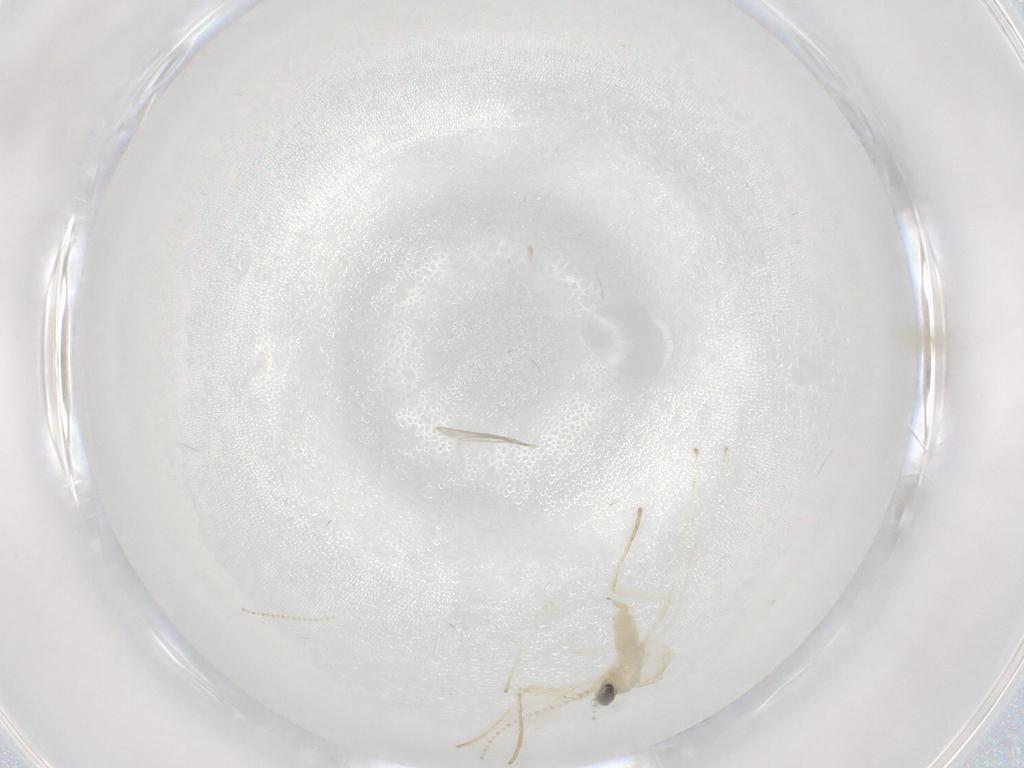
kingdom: Animalia
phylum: Arthropoda
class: Insecta
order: Diptera
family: Cecidomyiidae
